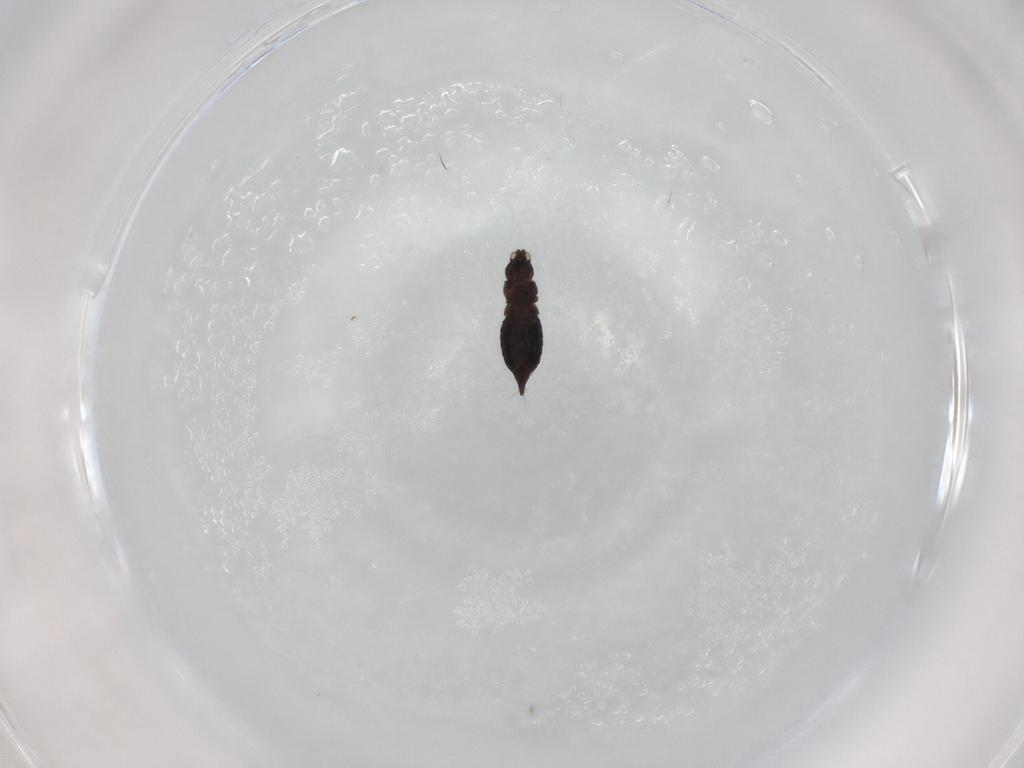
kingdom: Animalia
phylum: Arthropoda
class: Insecta
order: Thysanoptera
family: Thripidae
